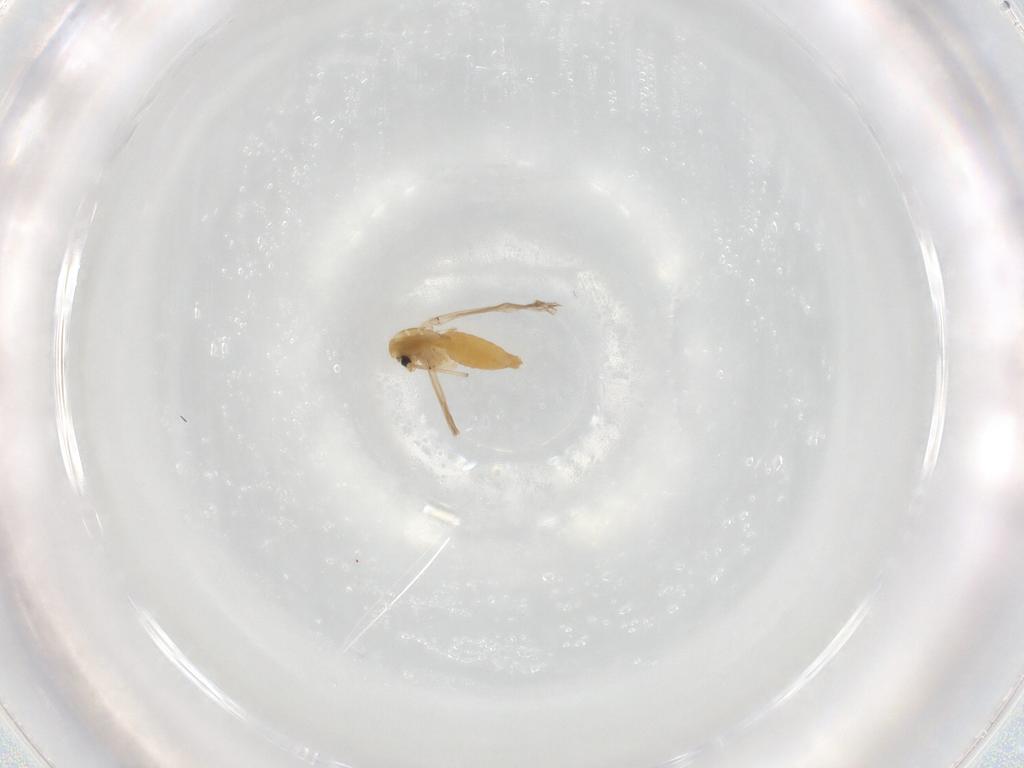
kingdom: Animalia
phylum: Arthropoda
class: Insecta
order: Diptera
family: Chironomidae
